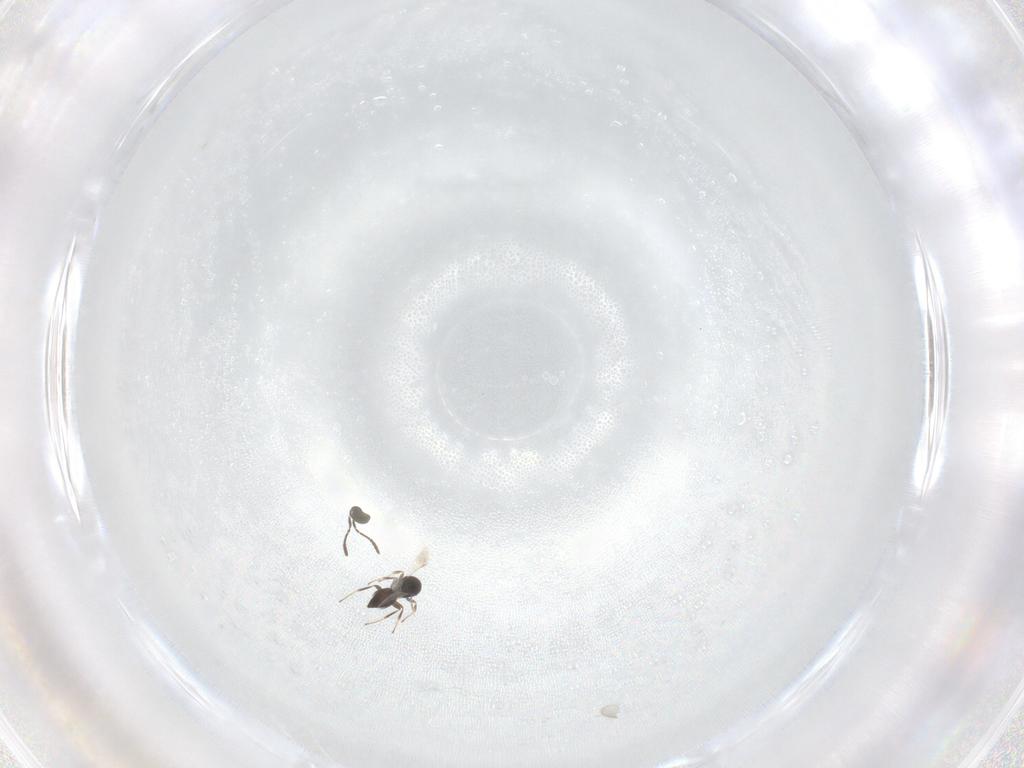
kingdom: Animalia
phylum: Arthropoda
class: Insecta
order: Hymenoptera
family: Scelionidae
